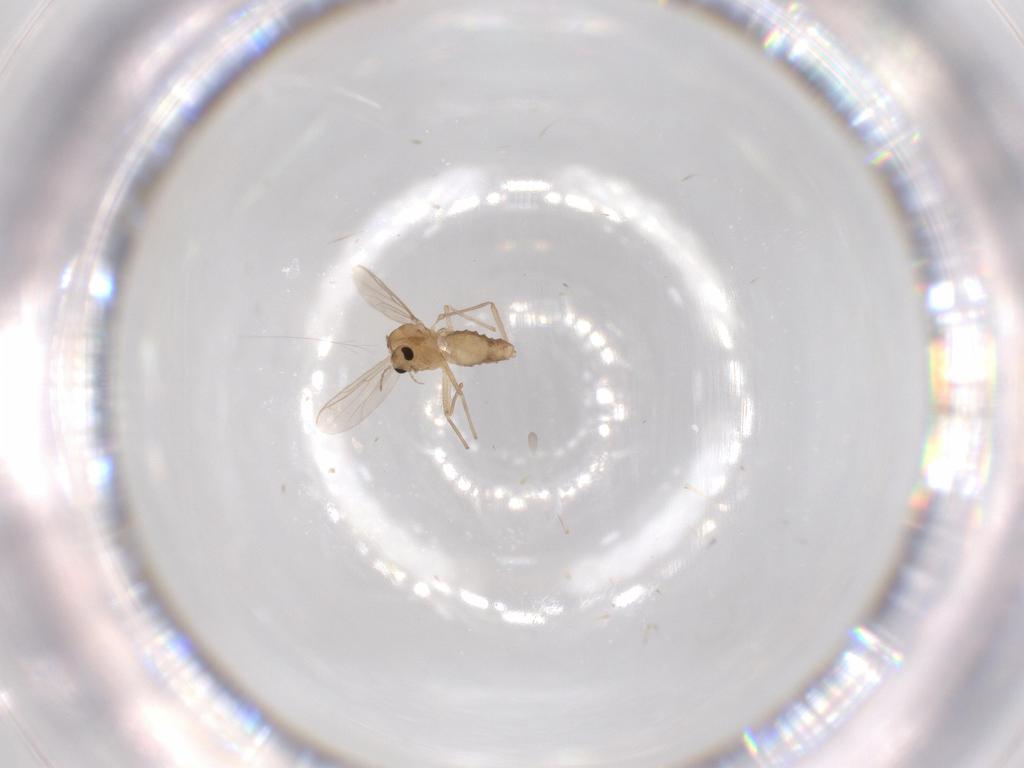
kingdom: Animalia
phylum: Arthropoda
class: Insecta
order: Diptera
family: Chironomidae
